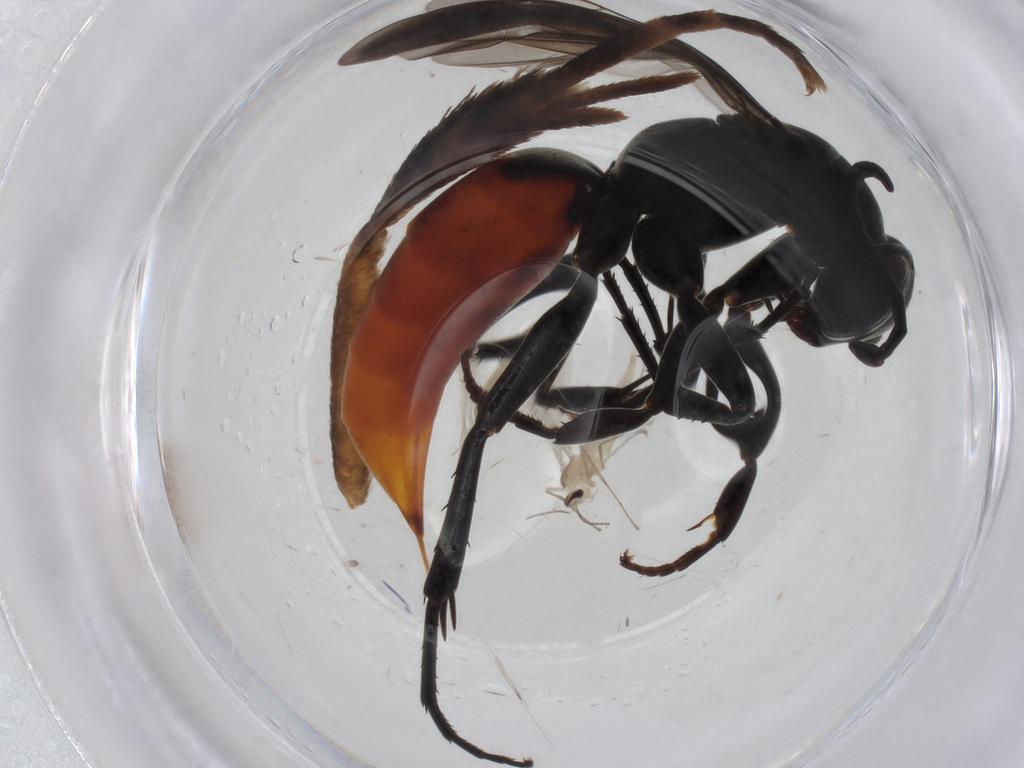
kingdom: Animalia
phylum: Arthropoda
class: Insecta
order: Hymenoptera
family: Pompilidae
